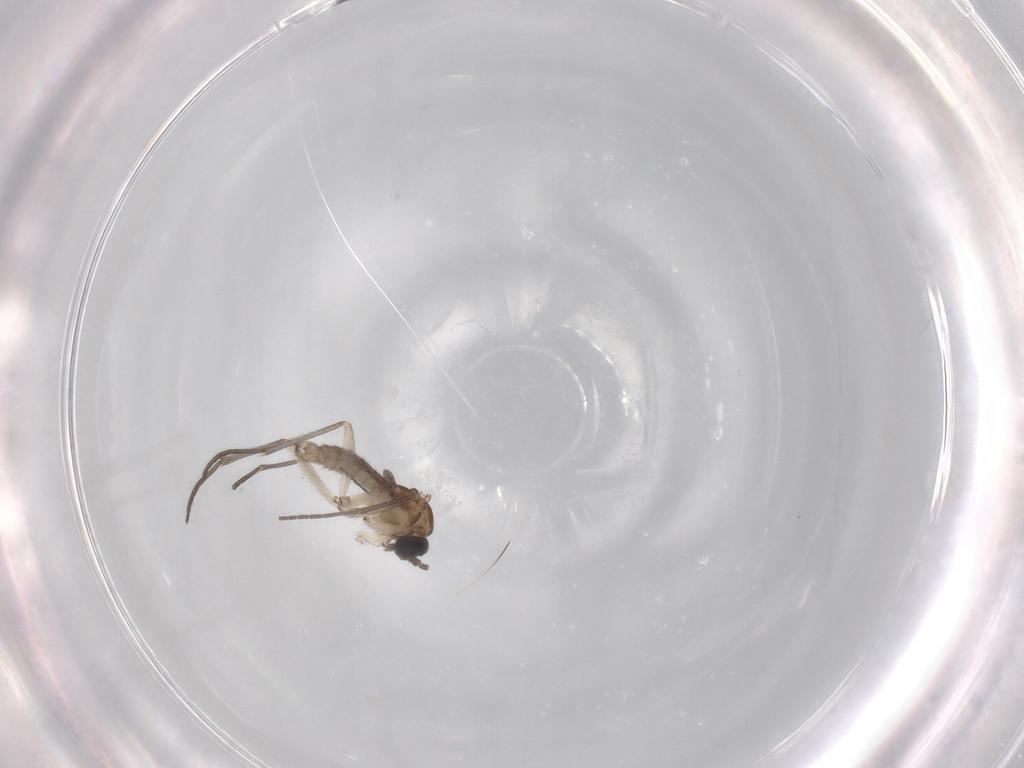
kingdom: Animalia
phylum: Arthropoda
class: Insecta
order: Diptera
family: Sciaridae
